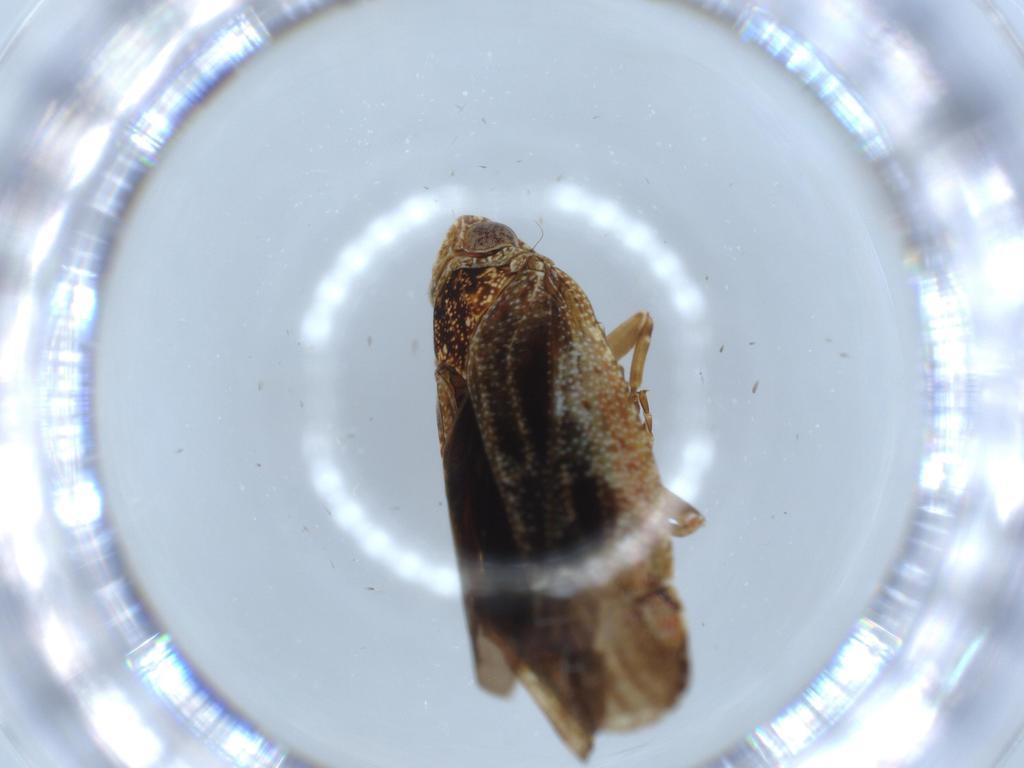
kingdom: Animalia
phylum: Arthropoda
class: Insecta
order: Hemiptera
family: Achilidae
